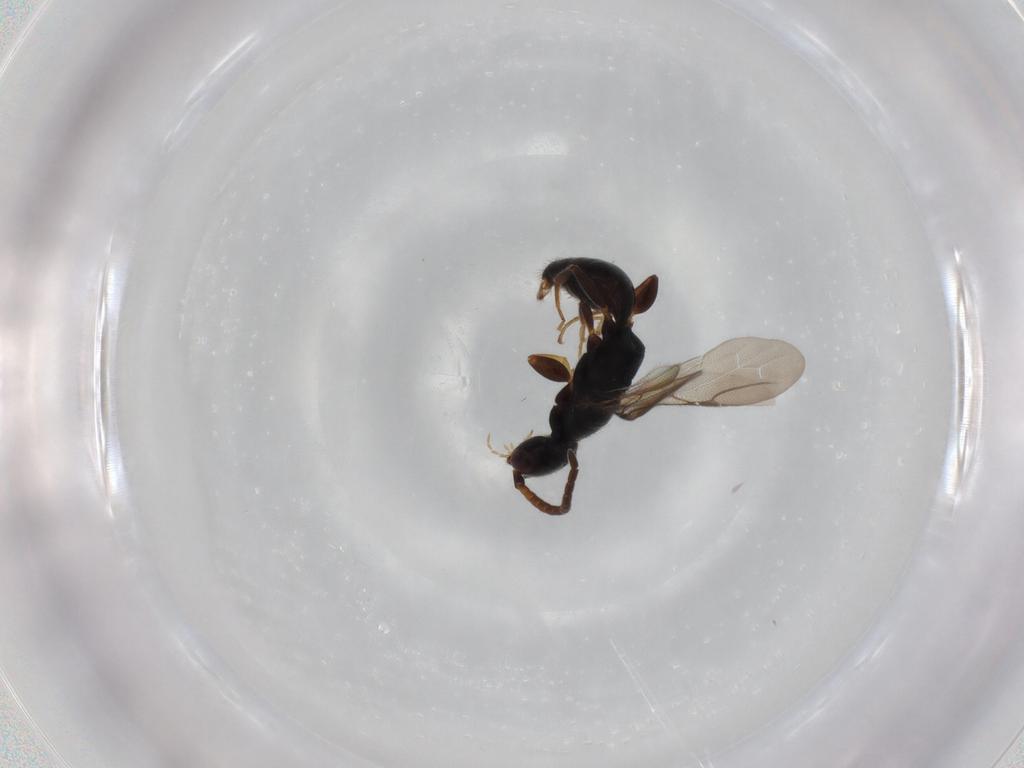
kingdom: Animalia
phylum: Arthropoda
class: Insecta
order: Hymenoptera
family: Bethylidae
